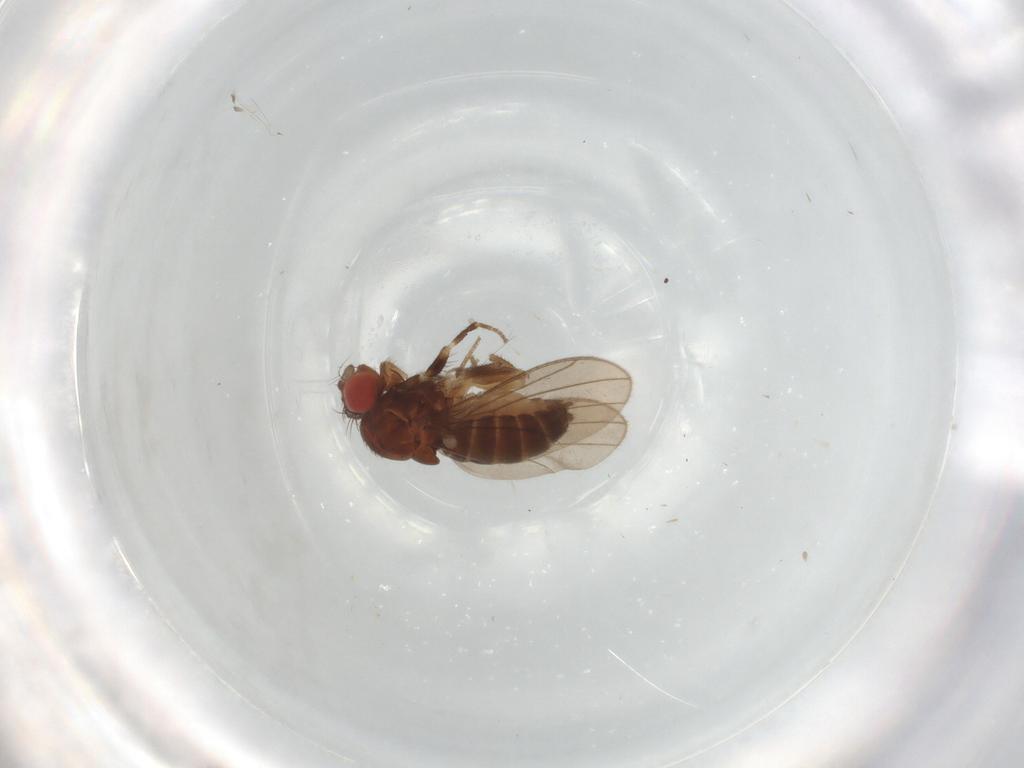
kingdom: Animalia
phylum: Arthropoda
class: Insecta
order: Diptera
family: Drosophilidae
